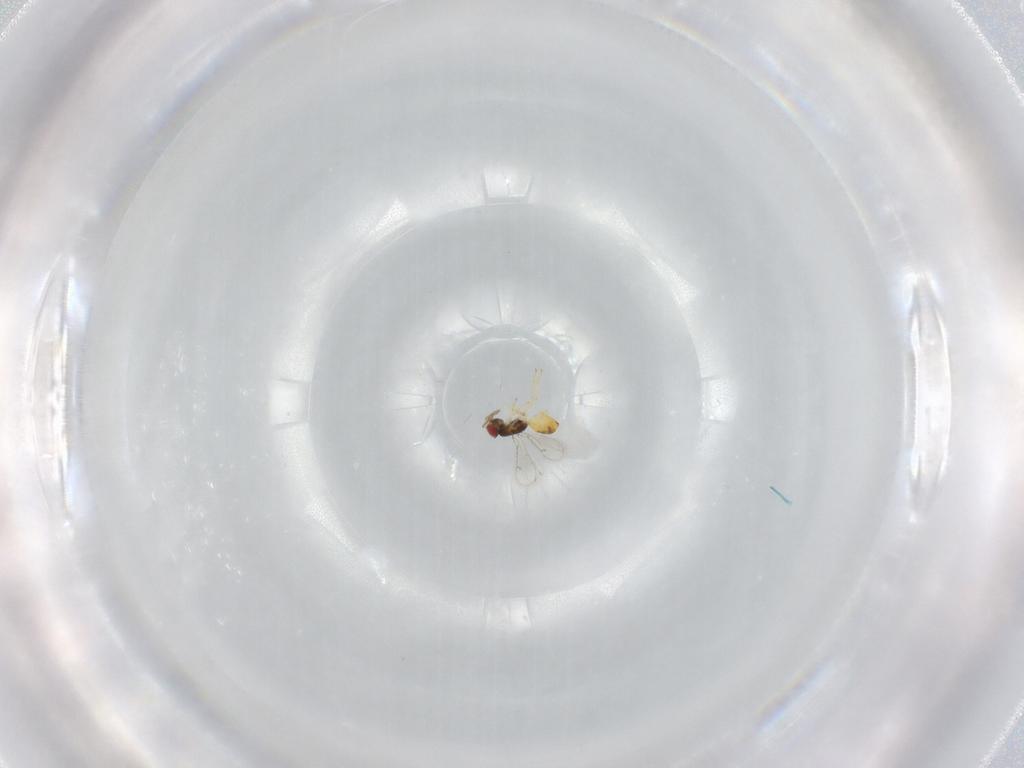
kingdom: Animalia
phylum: Arthropoda
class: Insecta
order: Hymenoptera
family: Eulophidae
